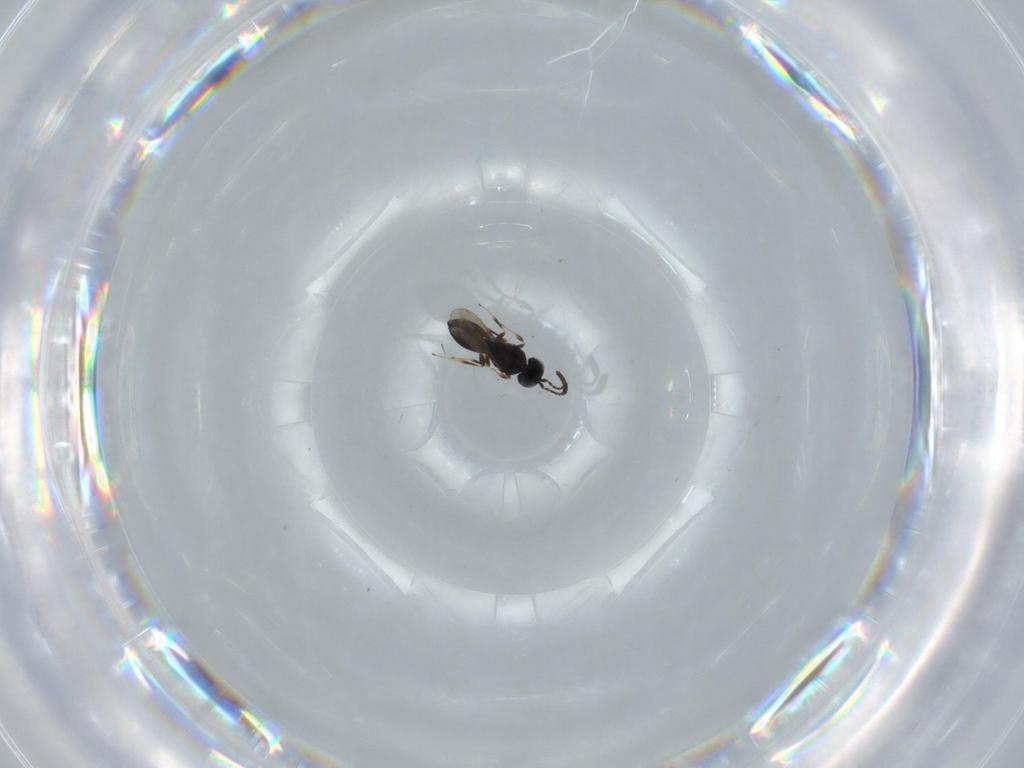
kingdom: Animalia
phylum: Arthropoda
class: Insecta
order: Hymenoptera
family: Scelionidae
